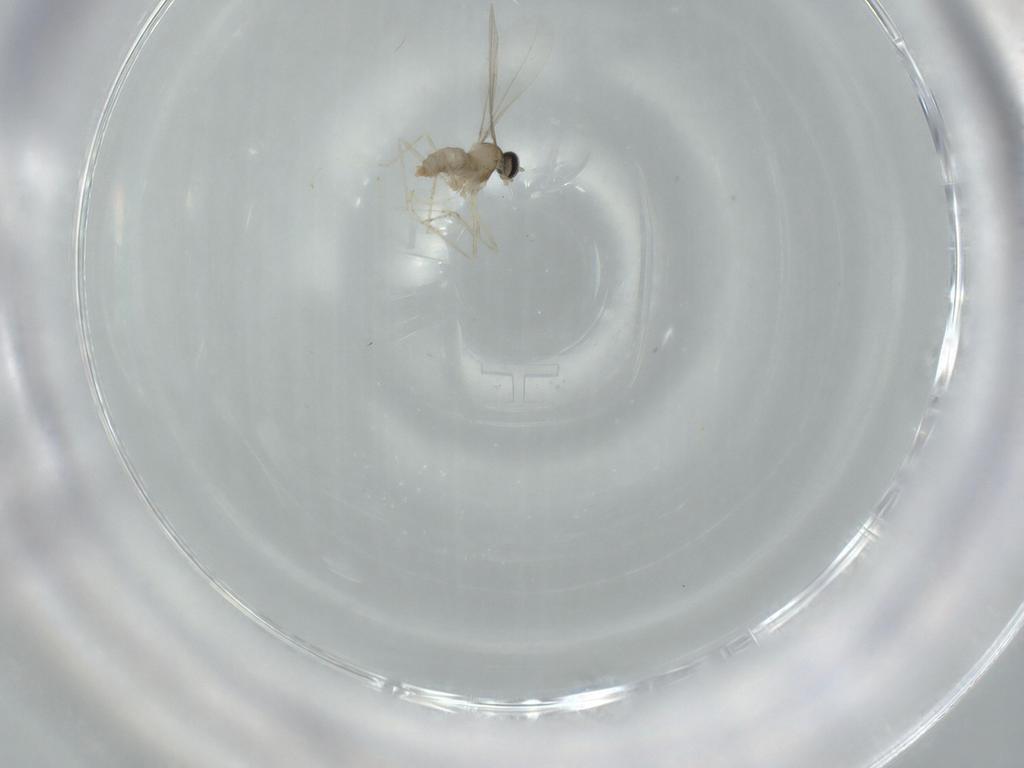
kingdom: Animalia
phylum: Arthropoda
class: Insecta
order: Diptera
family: Cecidomyiidae
